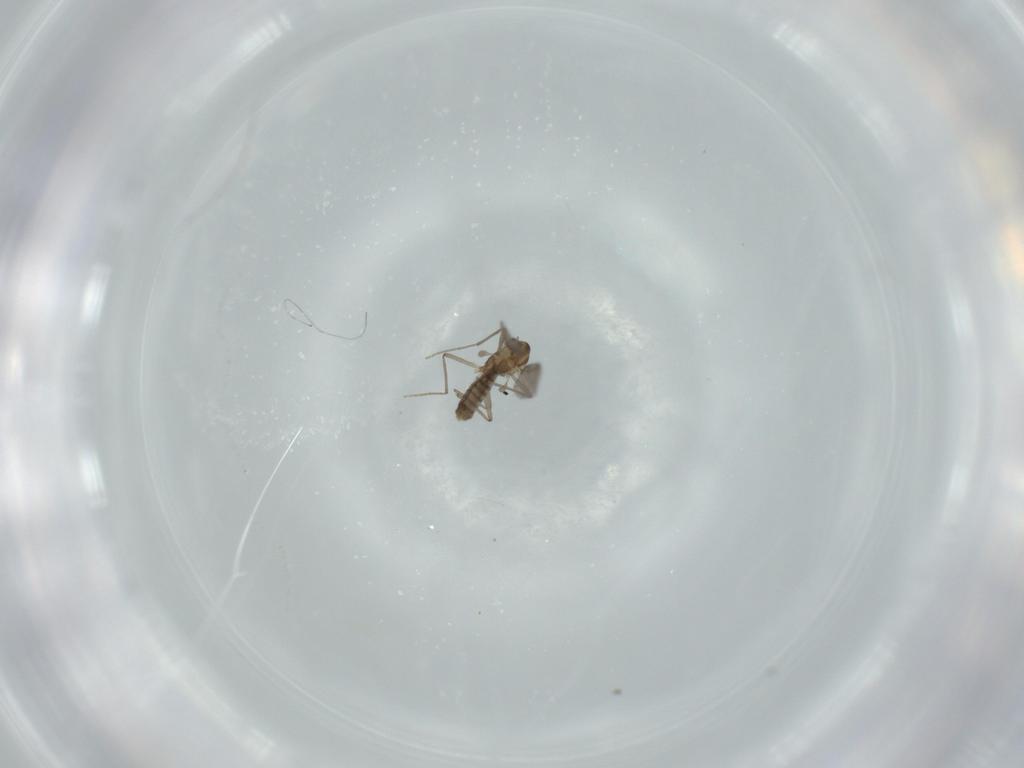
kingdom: Animalia
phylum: Arthropoda
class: Insecta
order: Diptera
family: Chironomidae
